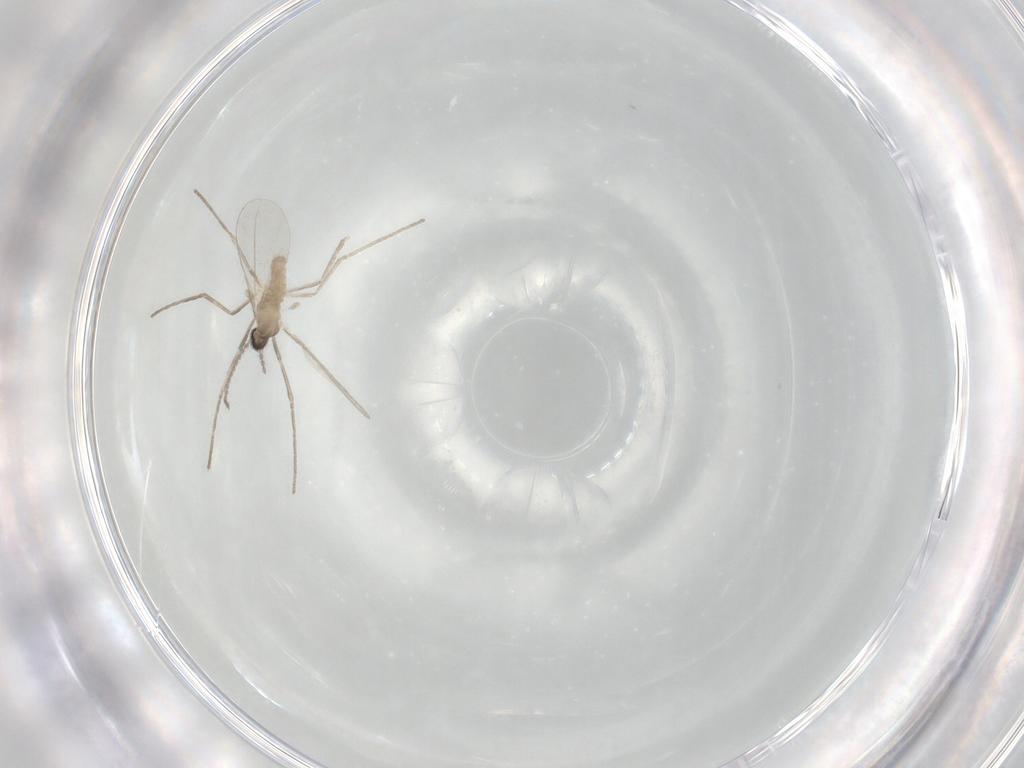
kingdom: Animalia
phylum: Arthropoda
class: Insecta
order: Diptera
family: Cecidomyiidae
